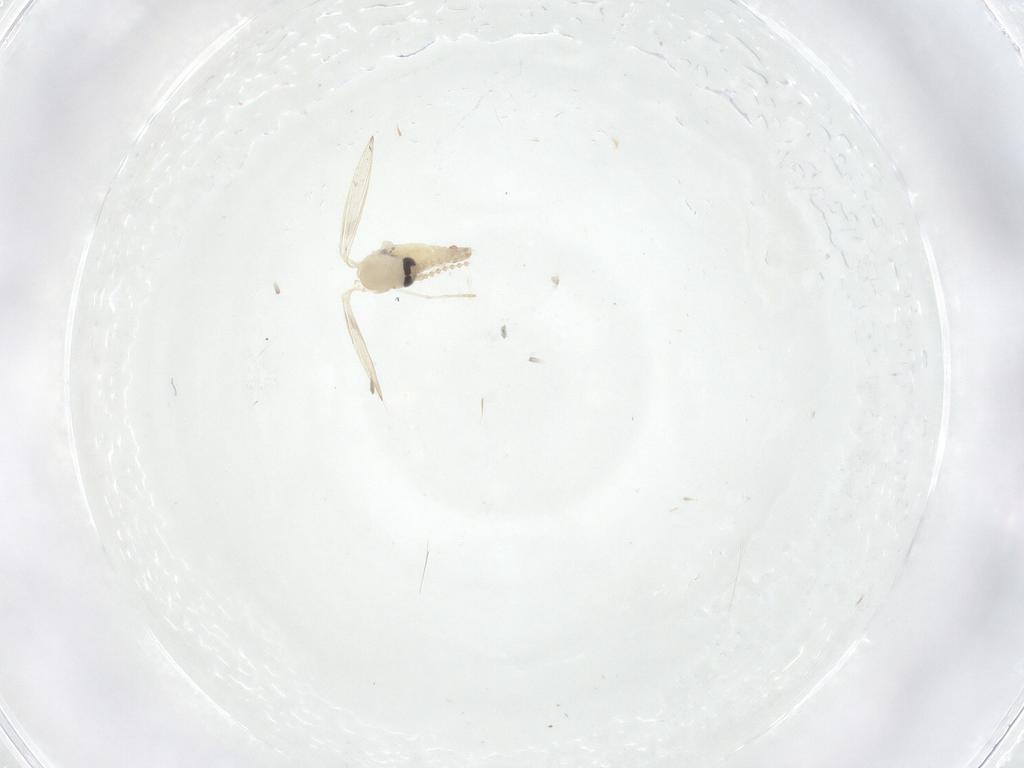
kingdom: Animalia
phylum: Arthropoda
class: Insecta
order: Diptera
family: Psychodidae
